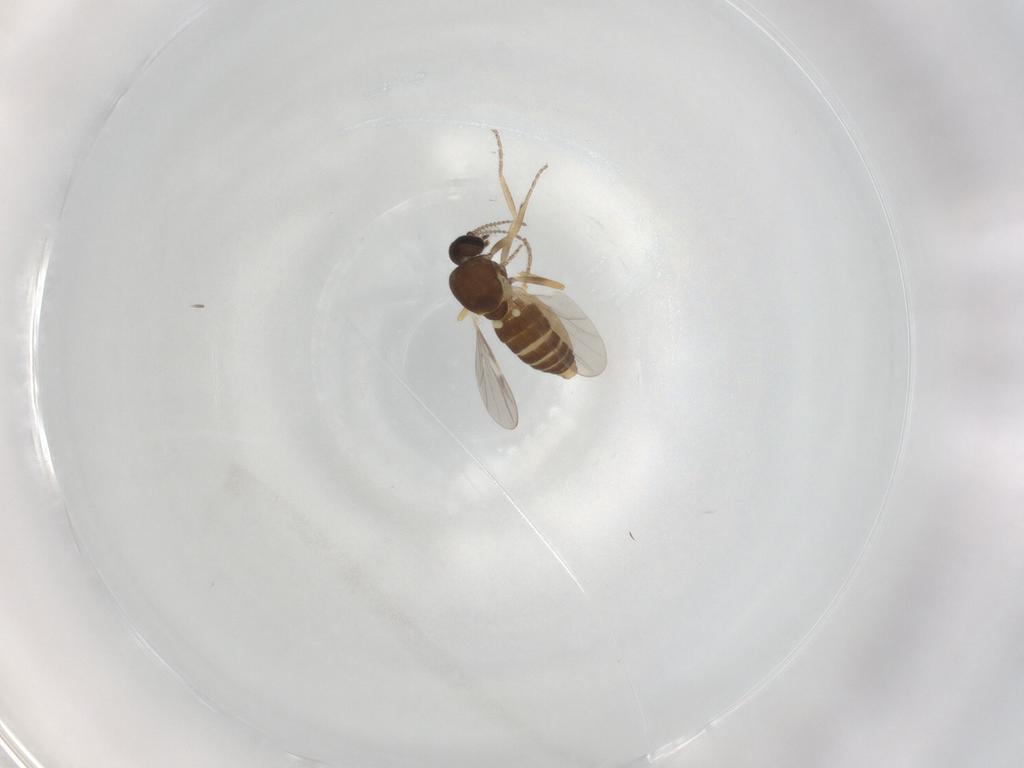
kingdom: Animalia
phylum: Arthropoda
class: Insecta
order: Diptera
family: Ceratopogonidae
